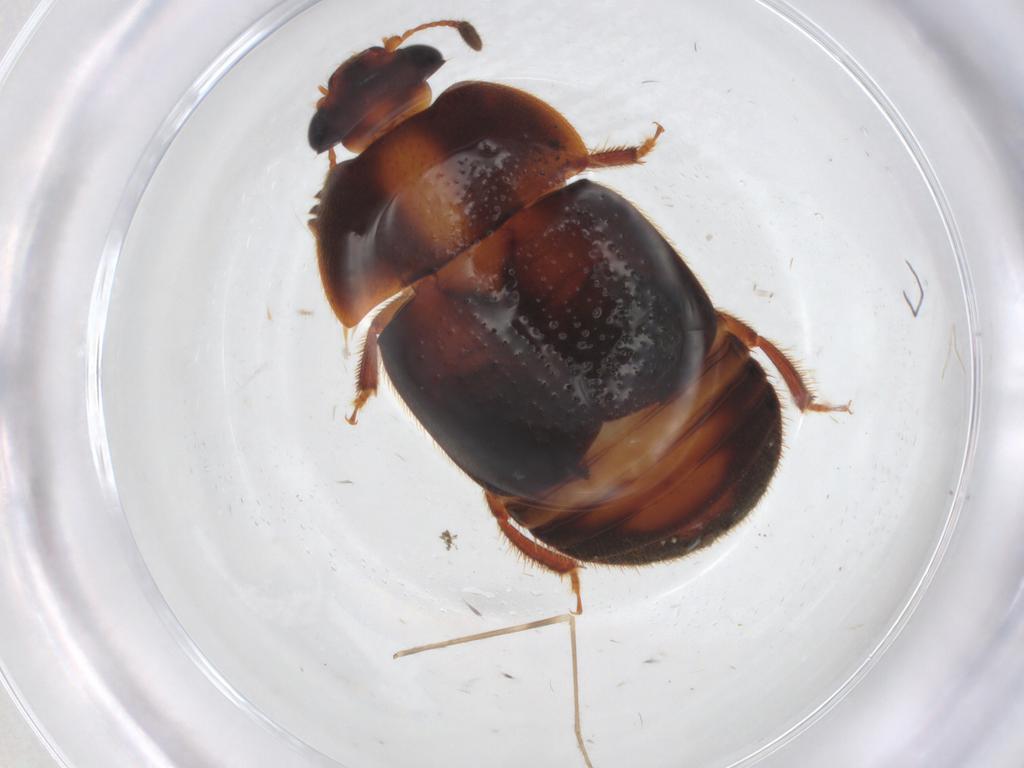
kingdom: Animalia
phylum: Arthropoda
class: Insecta
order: Coleoptera
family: Nitidulidae
